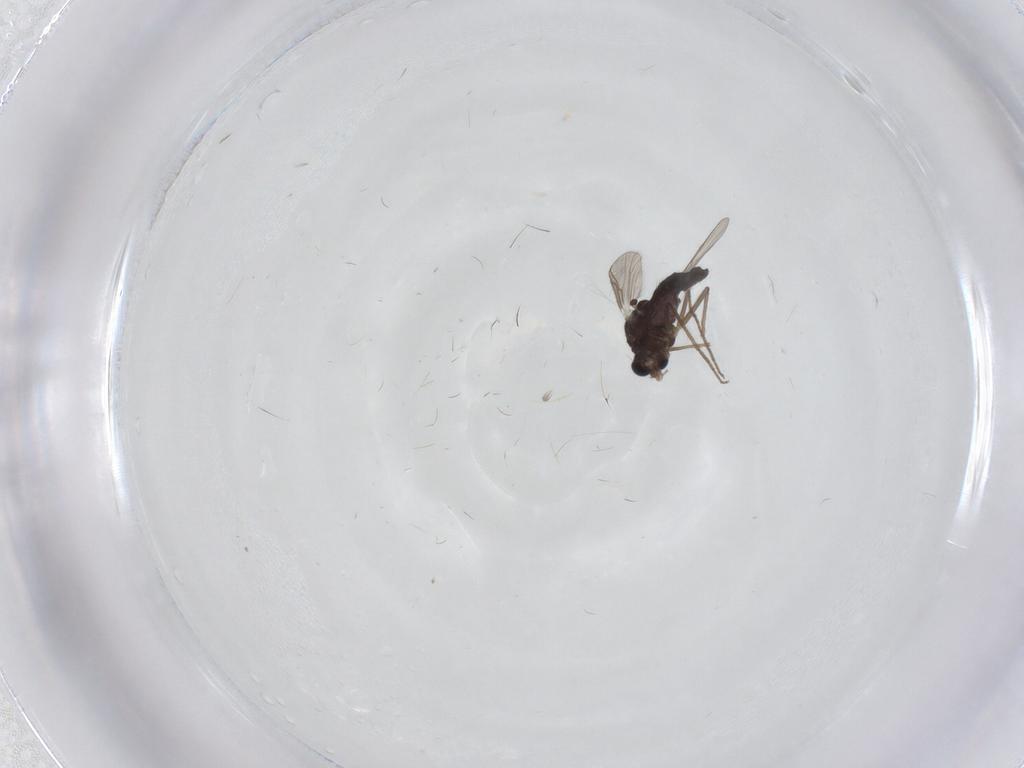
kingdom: Animalia
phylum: Arthropoda
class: Insecta
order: Diptera
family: Chironomidae
